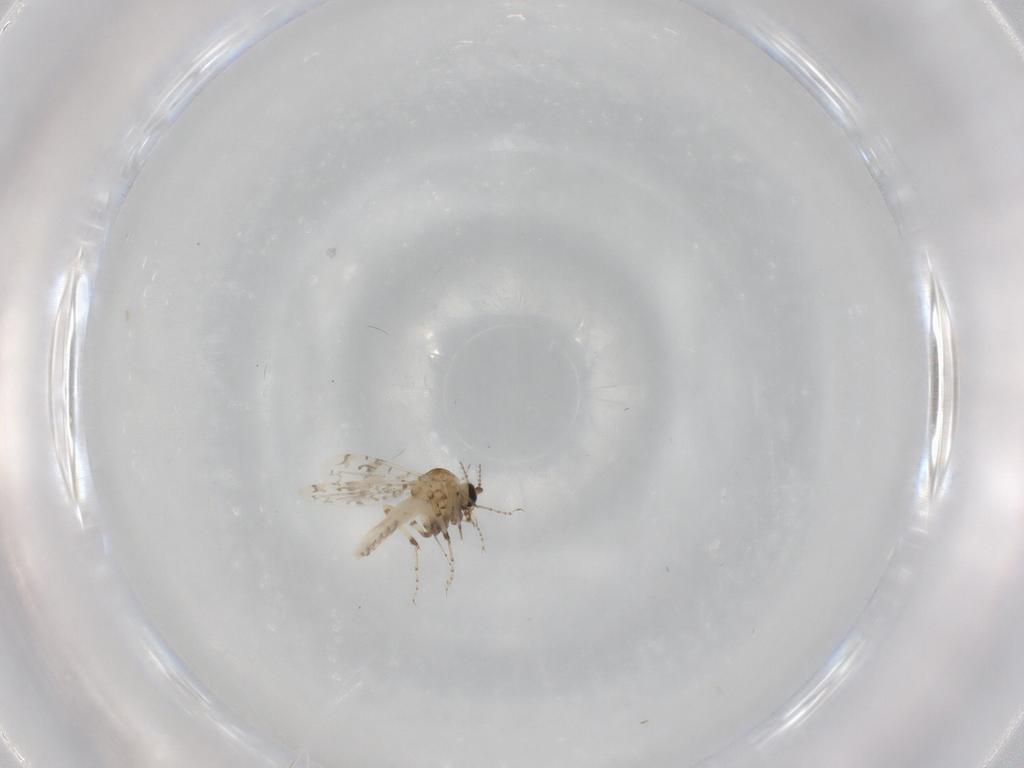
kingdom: Animalia
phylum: Arthropoda
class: Insecta
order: Diptera
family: Ceratopogonidae
